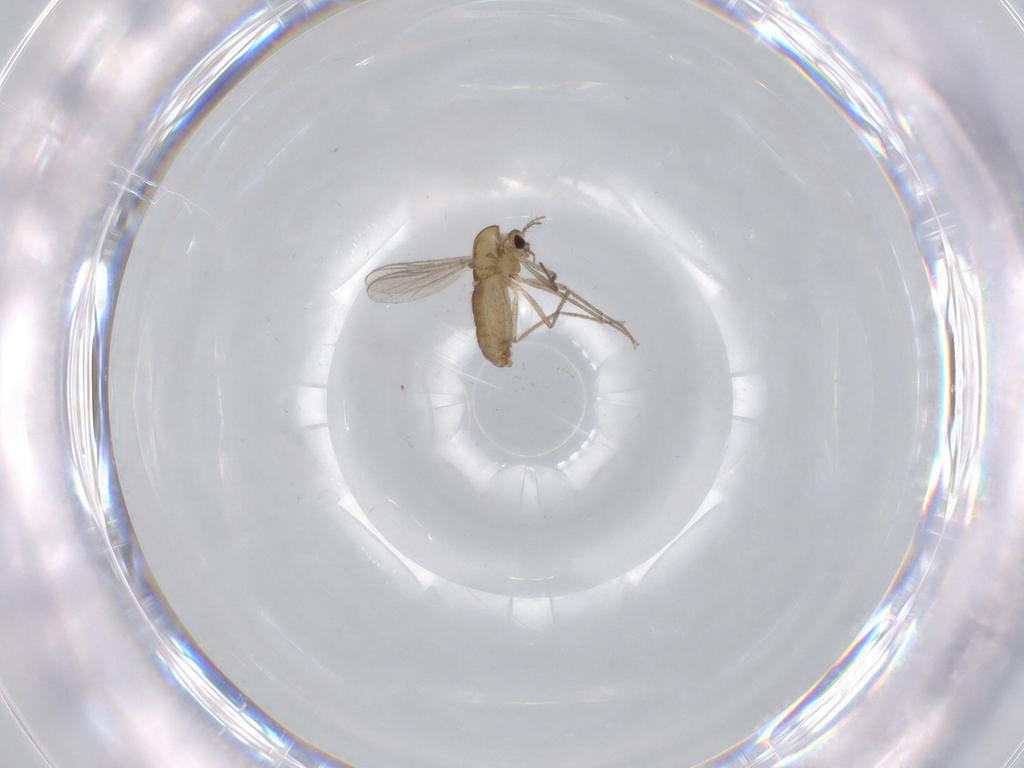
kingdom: Animalia
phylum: Arthropoda
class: Insecta
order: Diptera
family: Chironomidae
